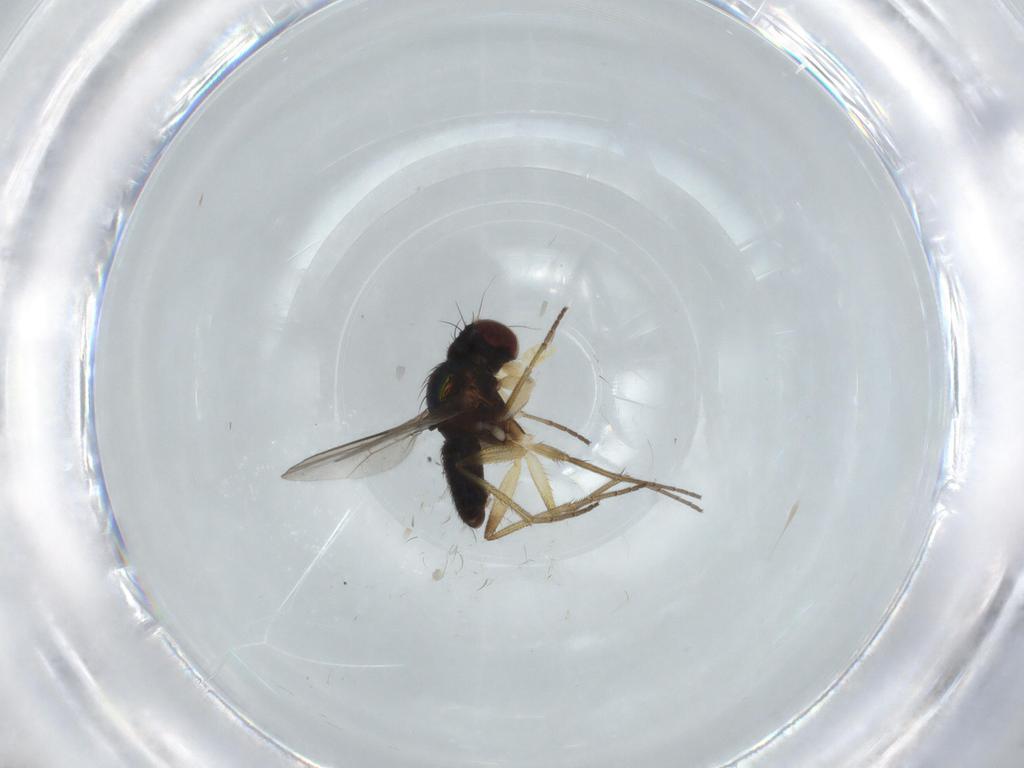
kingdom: Animalia
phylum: Arthropoda
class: Insecta
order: Diptera
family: Dolichopodidae
